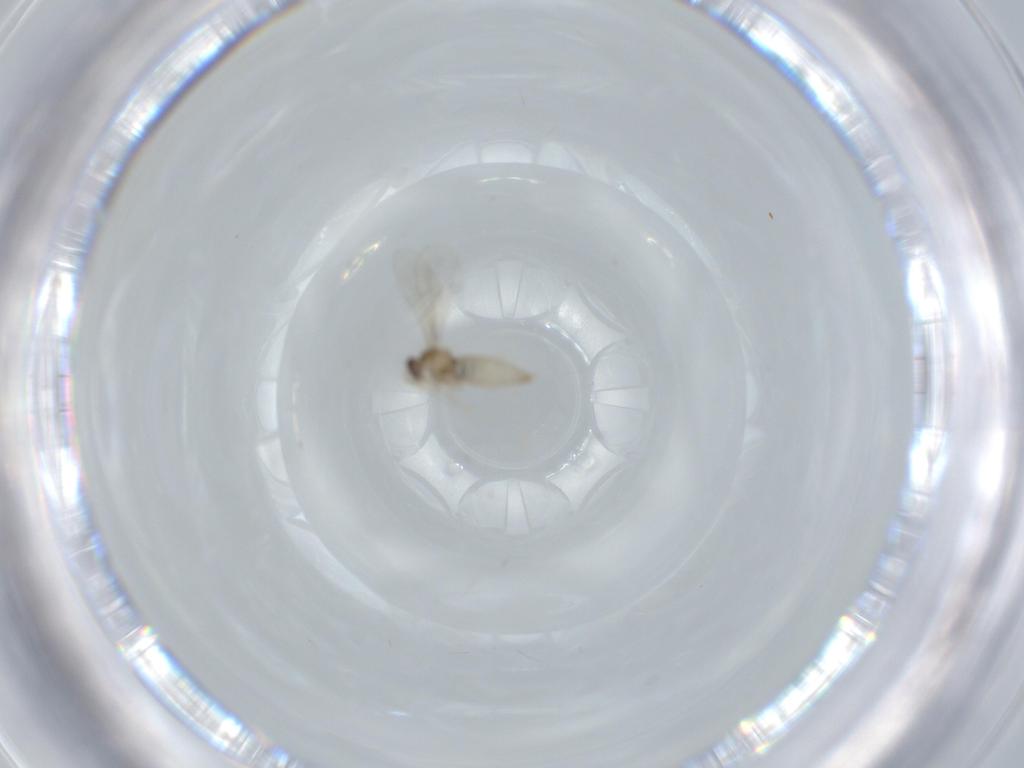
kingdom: Animalia
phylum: Arthropoda
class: Insecta
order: Diptera
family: Cecidomyiidae
